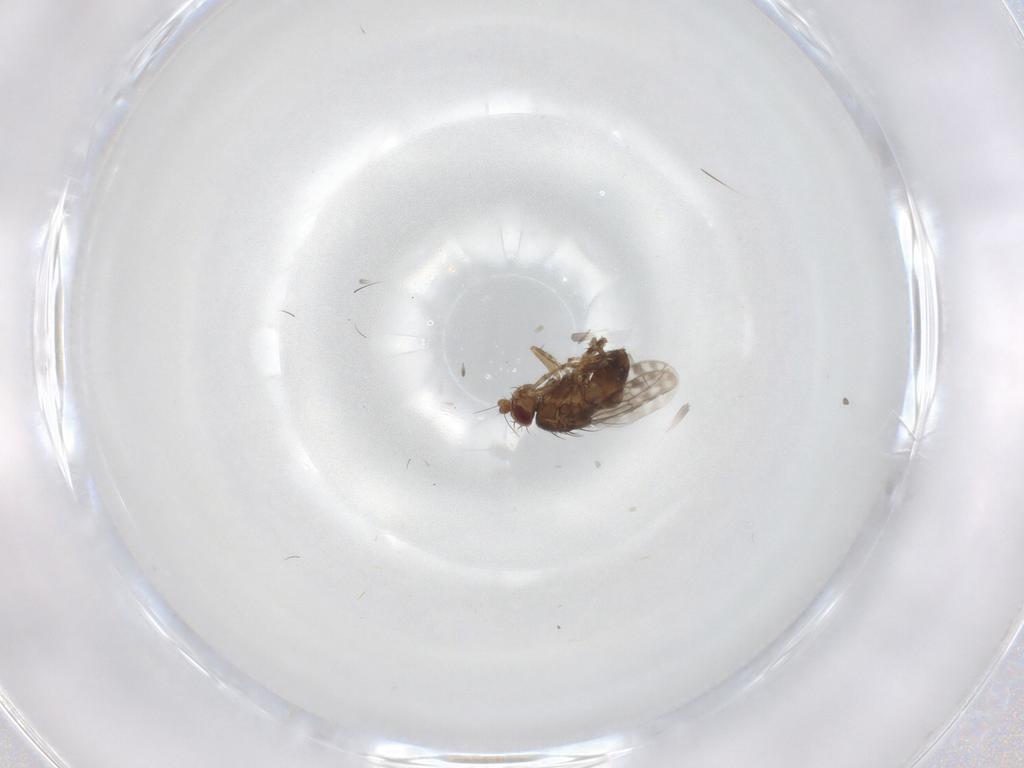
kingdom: Animalia
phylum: Arthropoda
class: Insecta
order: Diptera
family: Sphaeroceridae
